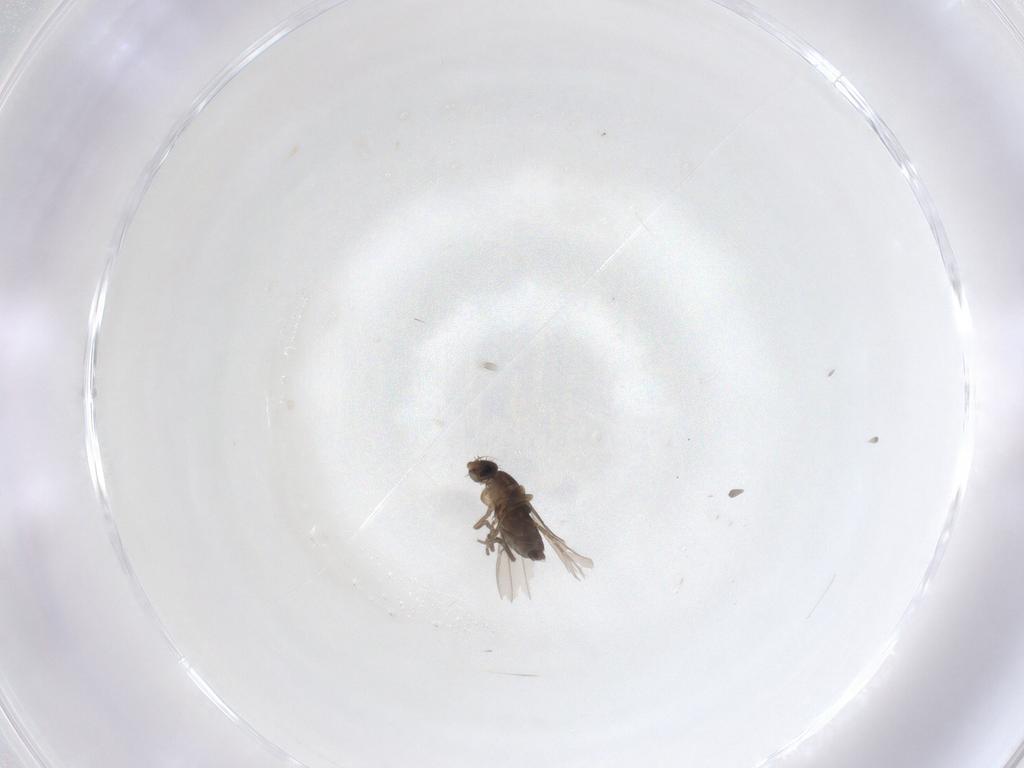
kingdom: Animalia
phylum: Arthropoda
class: Insecta
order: Diptera
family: Phoridae
